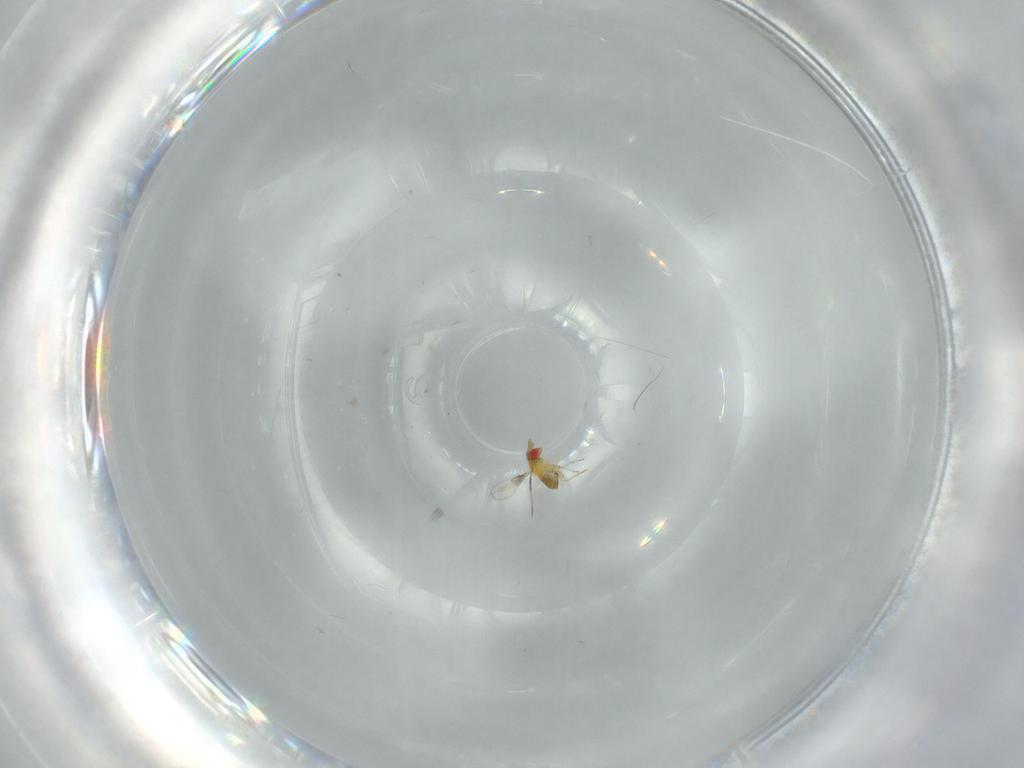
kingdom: Animalia
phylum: Arthropoda
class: Insecta
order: Hymenoptera
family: Trichogrammatidae
